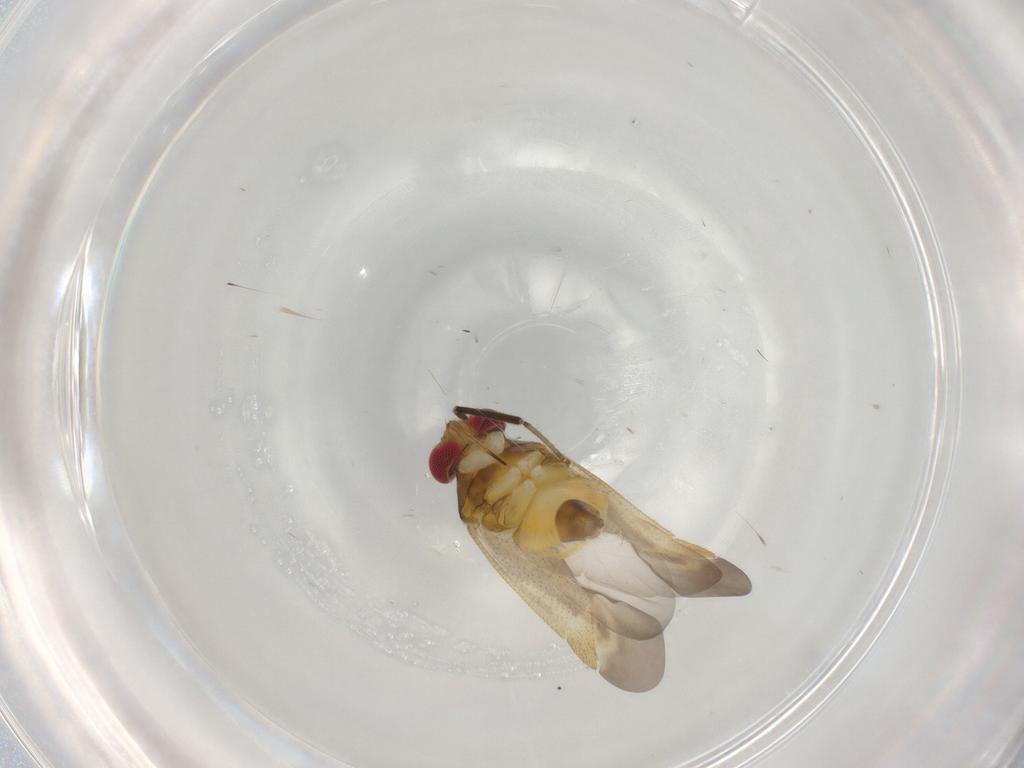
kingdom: Animalia
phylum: Arthropoda
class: Insecta
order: Hemiptera
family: Miridae
